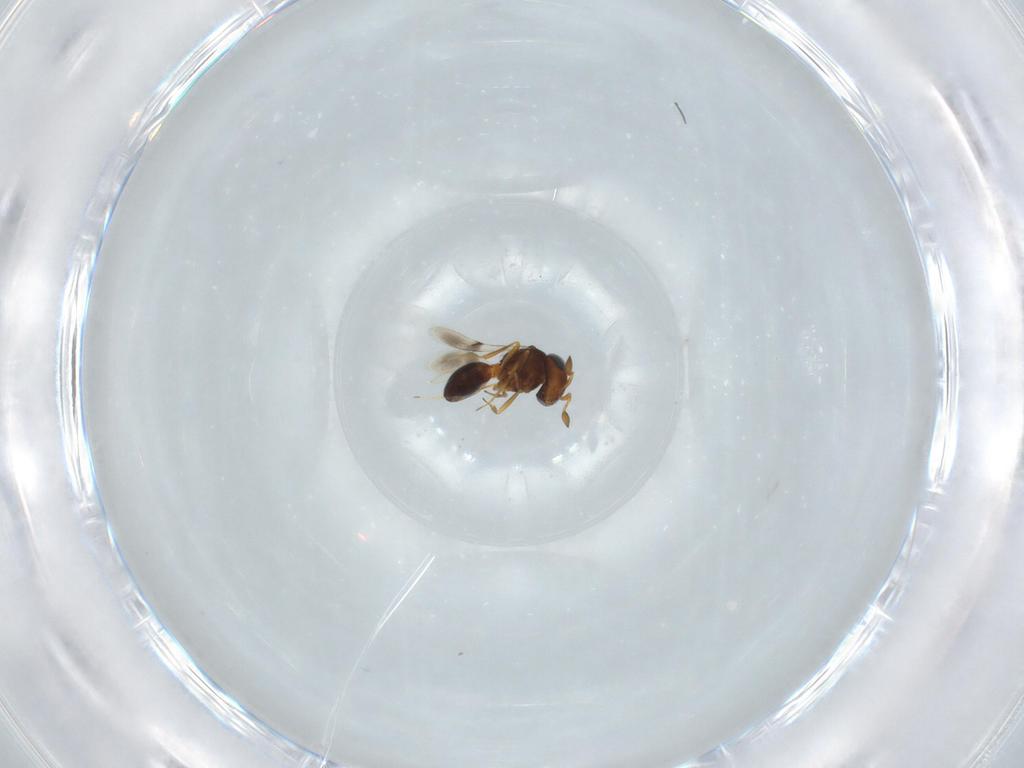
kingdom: Animalia
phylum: Arthropoda
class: Insecta
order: Hymenoptera
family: Scelionidae
